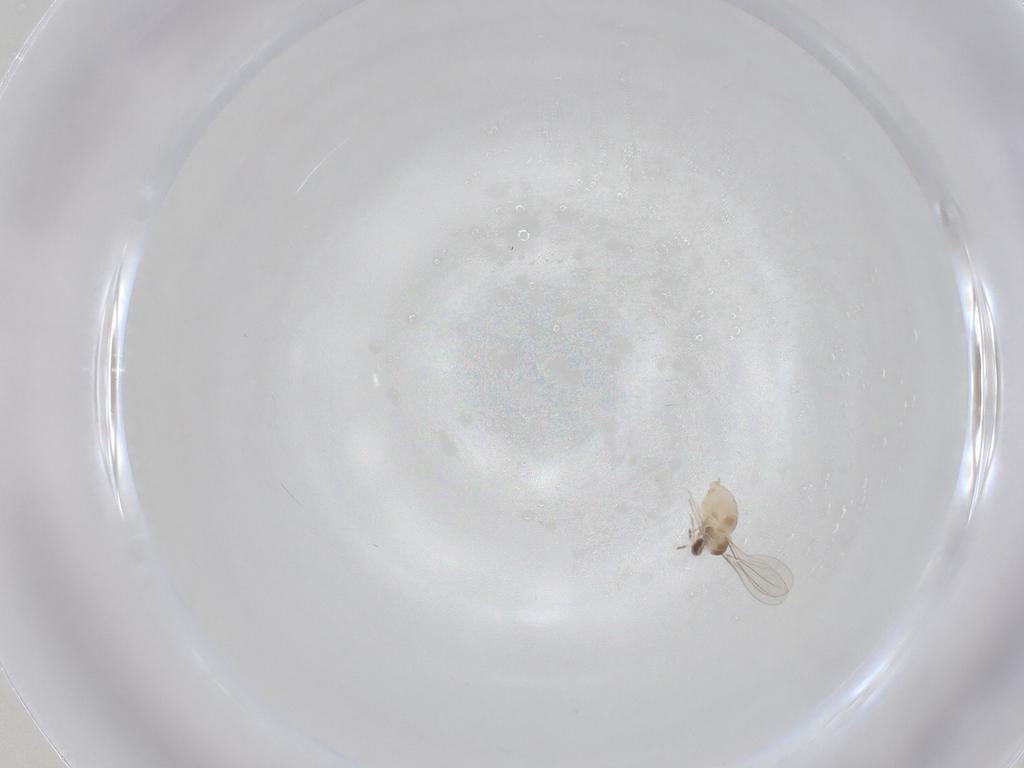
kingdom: Animalia
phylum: Arthropoda
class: Insecta
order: Diptera
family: Cecidomyiidae
